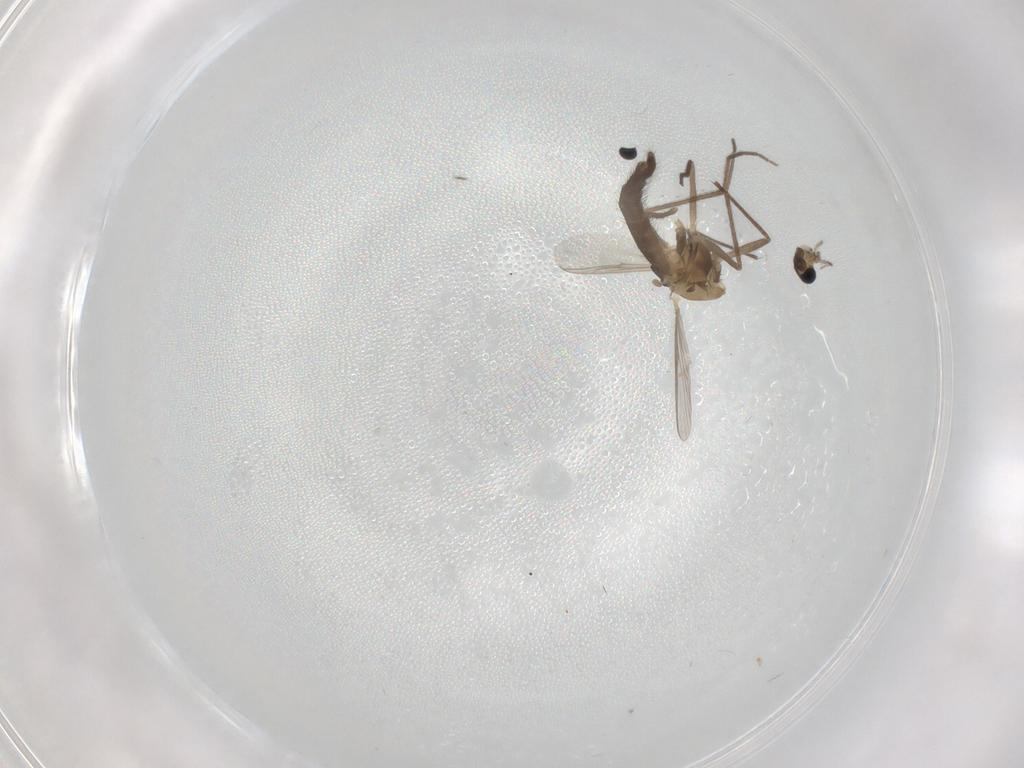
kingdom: Animalia
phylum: Arthropoda
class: Insecta
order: Diptera
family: Chironomidae
